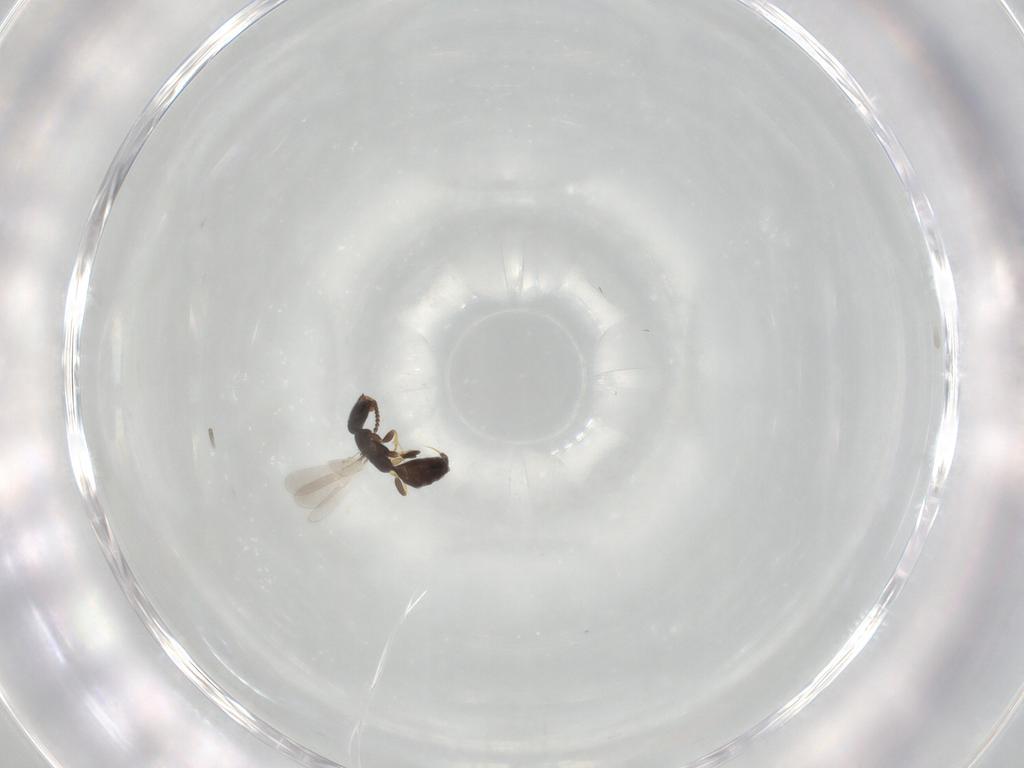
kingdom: Animalia
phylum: Arthropoda
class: Insecta
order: Hymenoptera
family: Bethylidae
